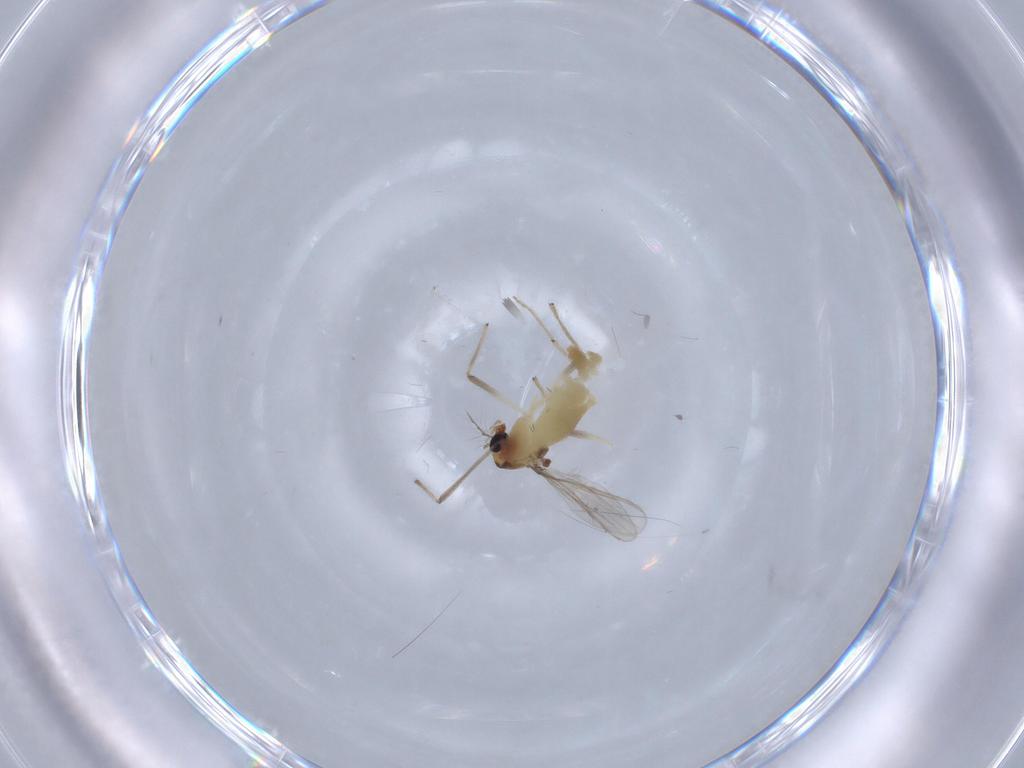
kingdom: Animalia
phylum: Arthropoda
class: Insecta
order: Diptera
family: Chironomidae
